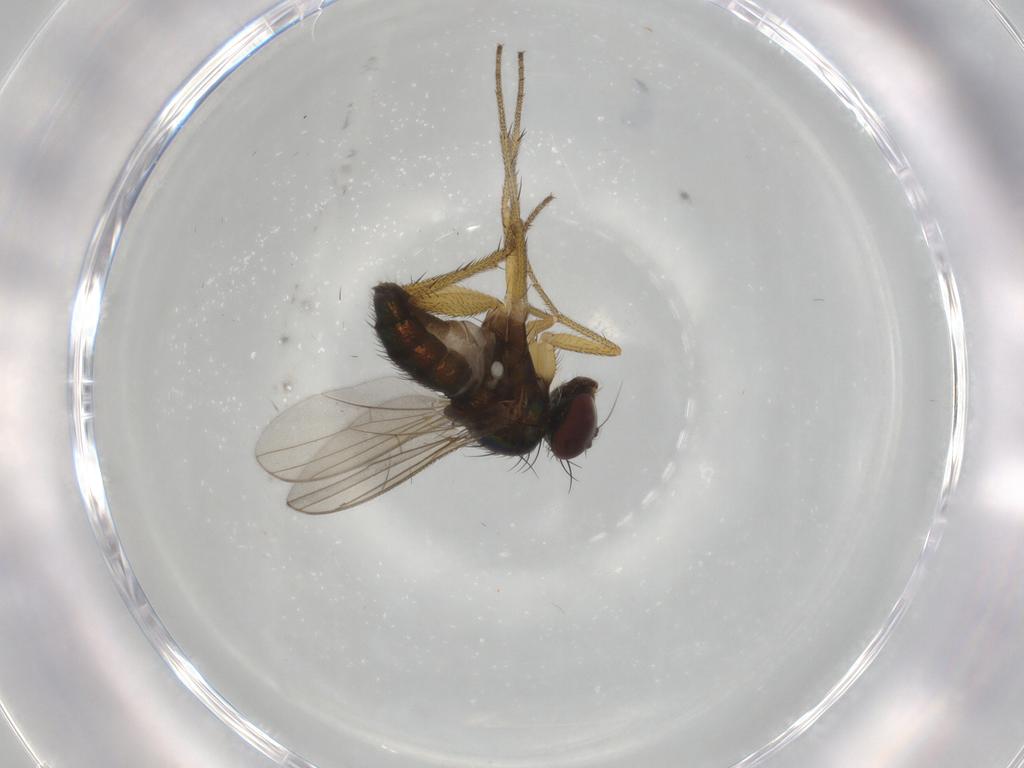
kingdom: Animalia
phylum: Arthropoda
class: Insecta
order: Diptera
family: Dolichopodidae
